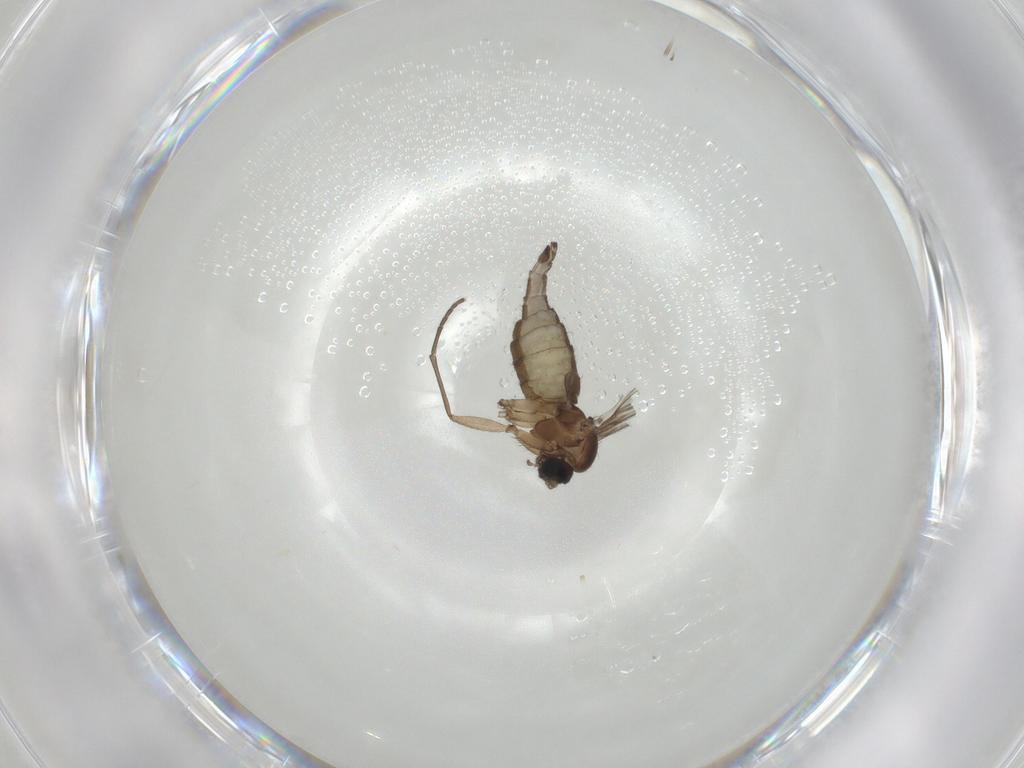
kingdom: Animalia
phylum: Arthropoda
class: Insecta
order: Diptera
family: Sciaridae
